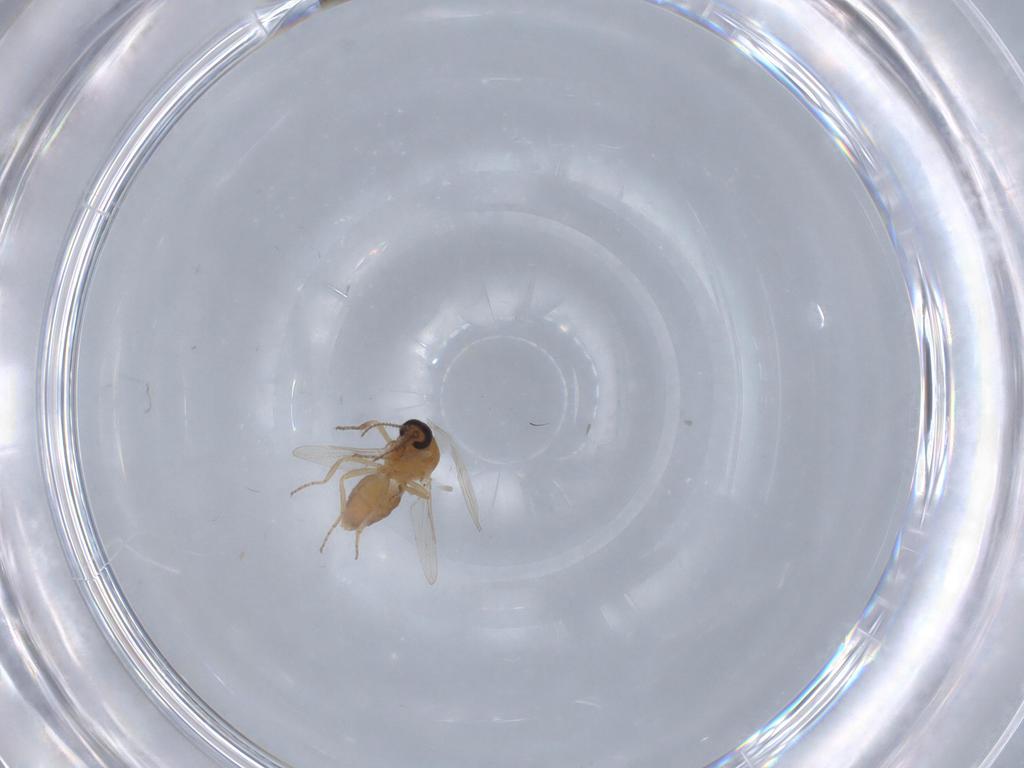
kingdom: Animalia
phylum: Arthropoda
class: Insecta
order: Diptera
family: Ceratopogonidae
